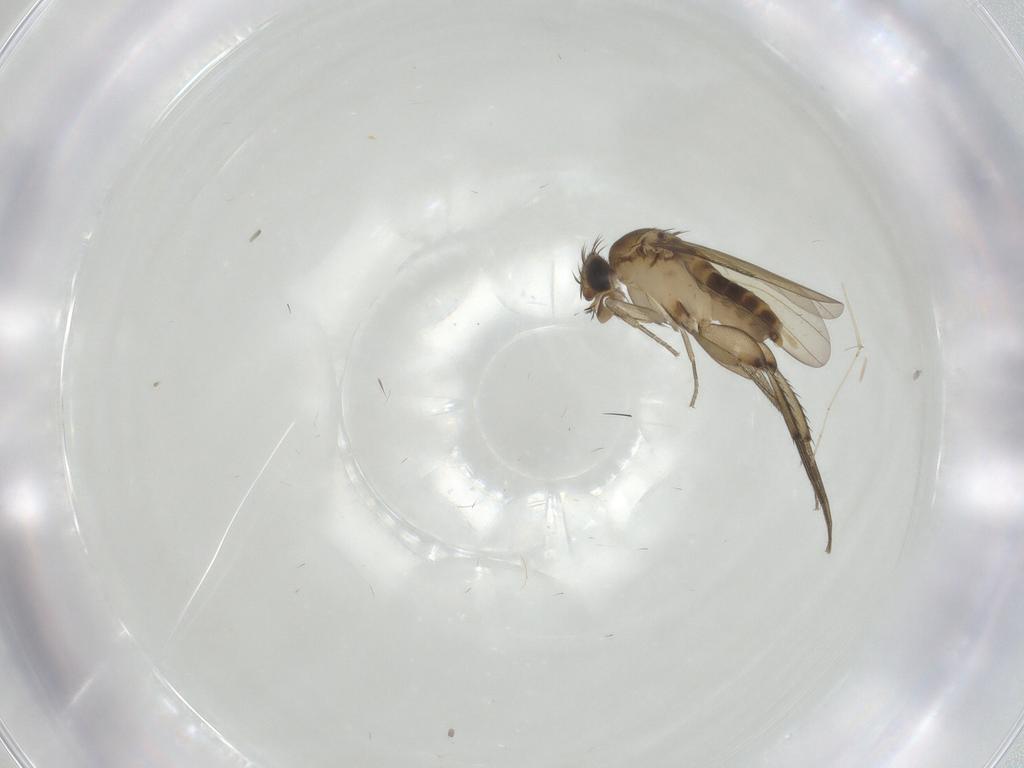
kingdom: Animalia
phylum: Arthropoda
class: Insecta
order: Diptera
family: Phoridae
